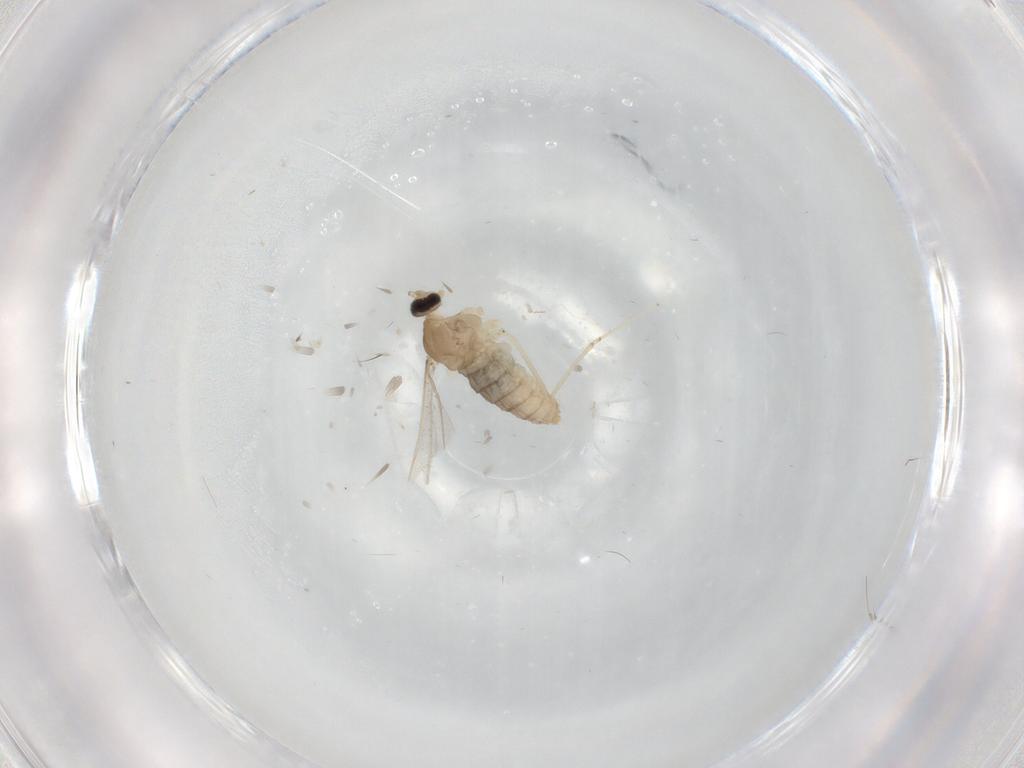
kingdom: Animalia
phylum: Arthropoda
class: Insecta
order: Diptera
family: Cecidomyiidae
